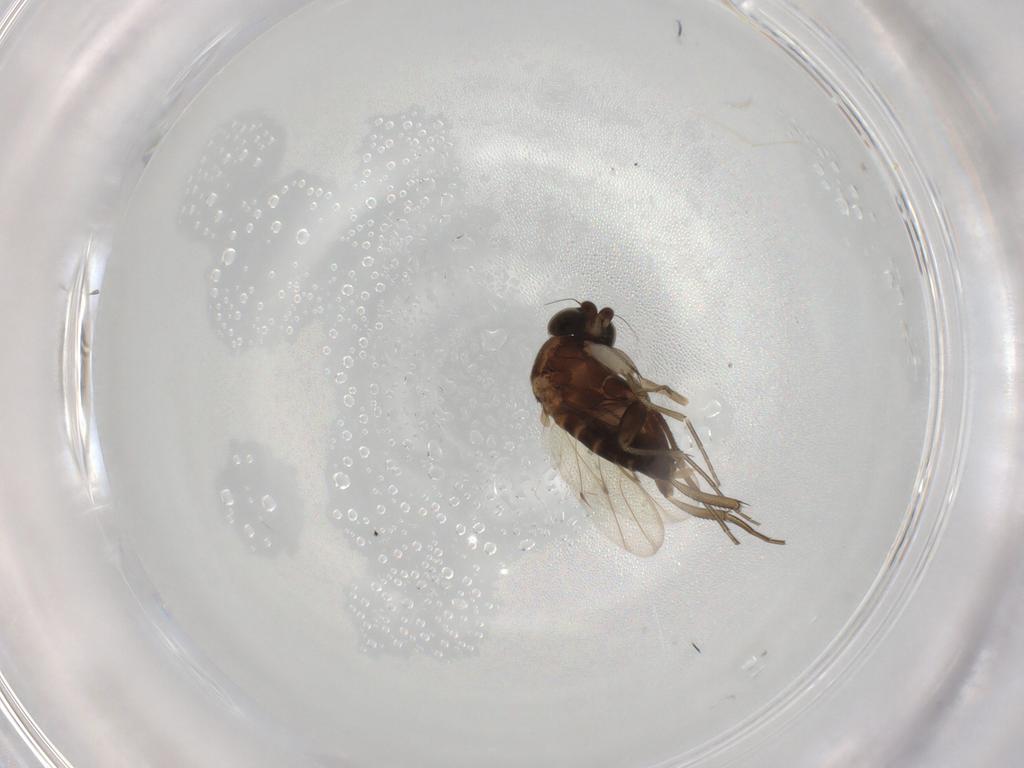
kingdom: Animalia
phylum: Arthropoda
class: Insecta
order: Diptera
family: Phoridae
